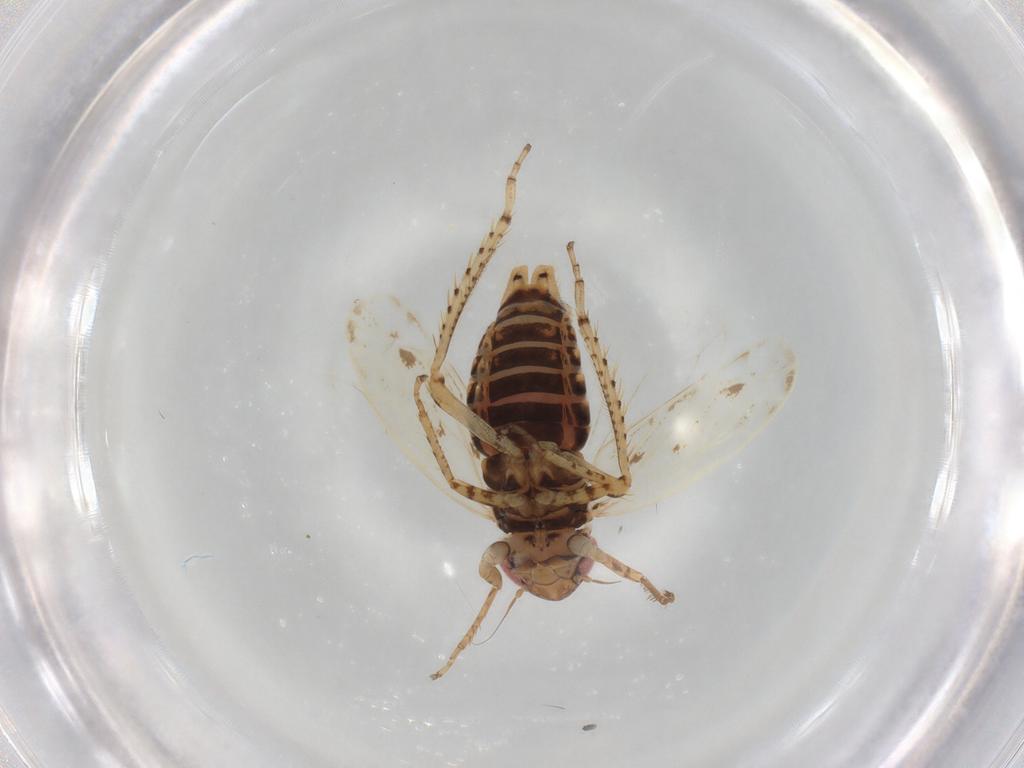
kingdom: Animalia
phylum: Arthropoda
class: Insecta
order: Hemiptera
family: Cicadellidae
